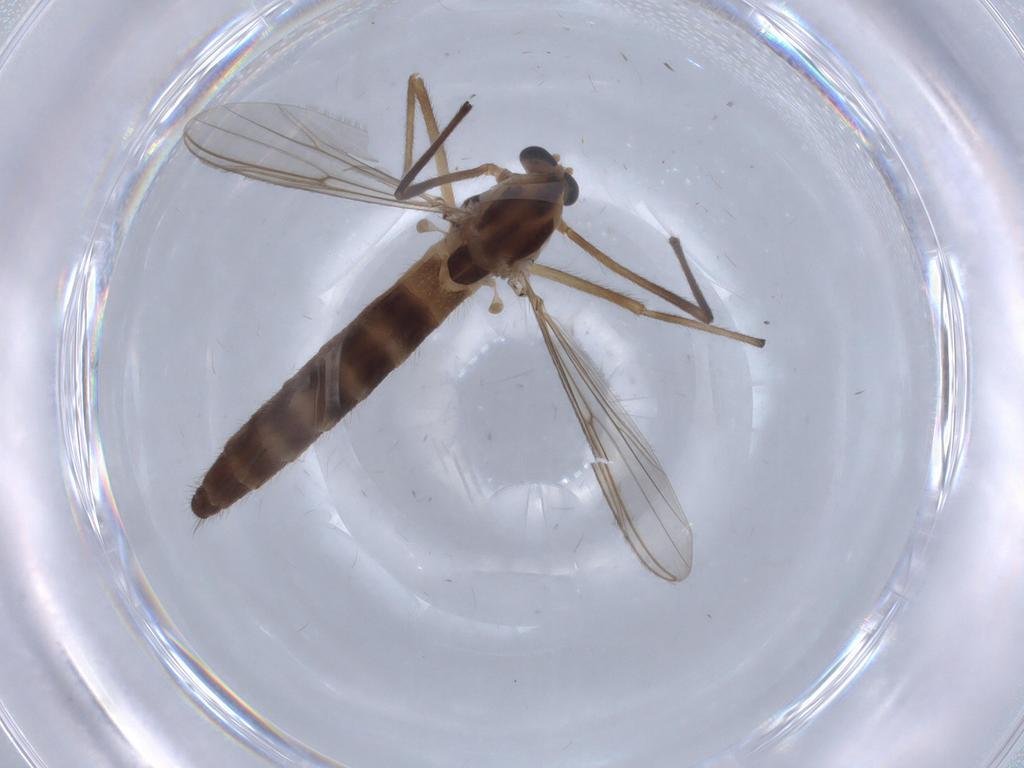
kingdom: Animalia
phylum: Arthropoda
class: Insecta
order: Diptera
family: Chironomidae
